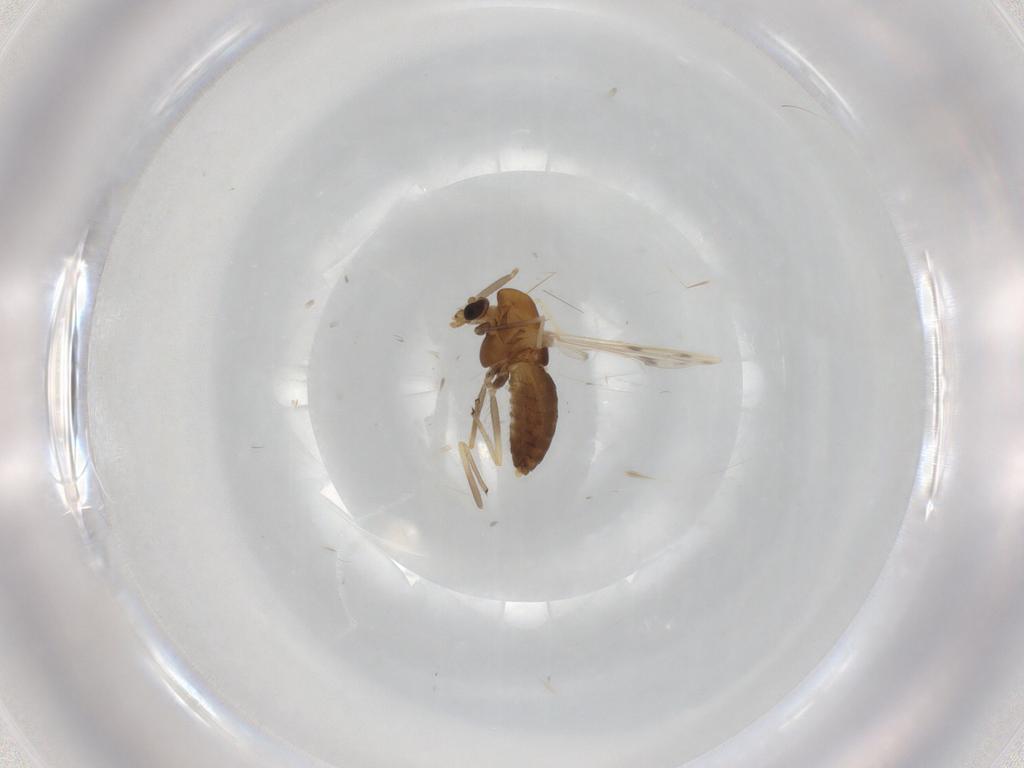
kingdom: Animalia
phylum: Arthropoda
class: Insecta
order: Diptera
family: Chironomidae
